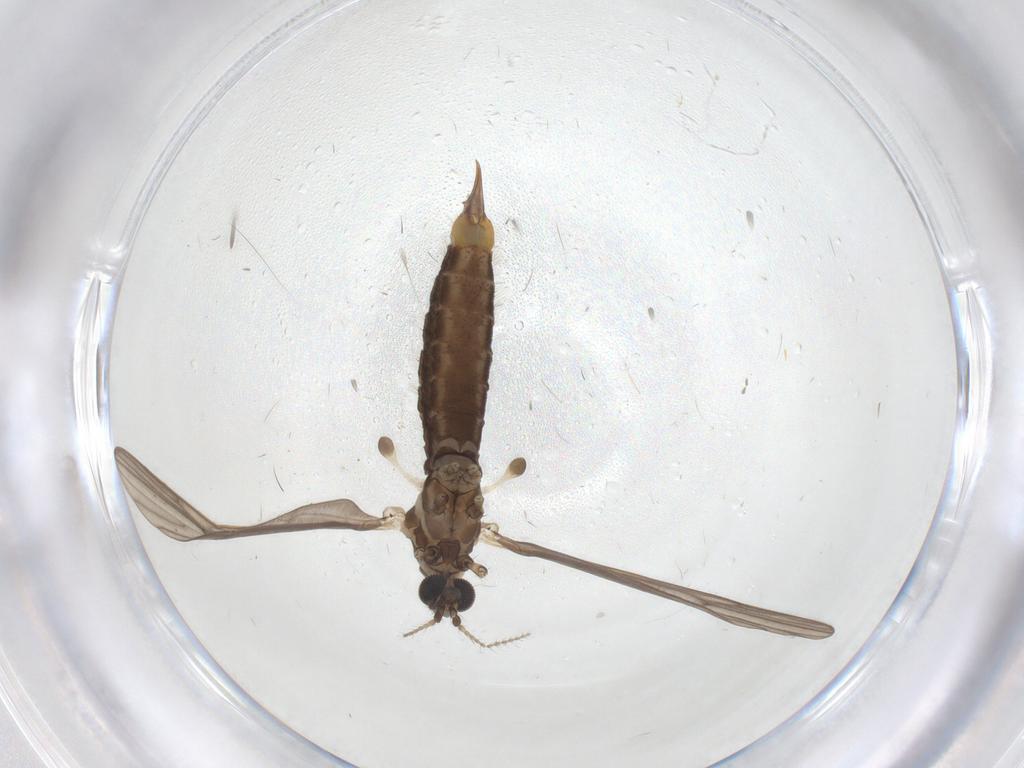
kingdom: Animalia
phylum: Arthropoda
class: Insecta
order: Diptera
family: Limoniidae
